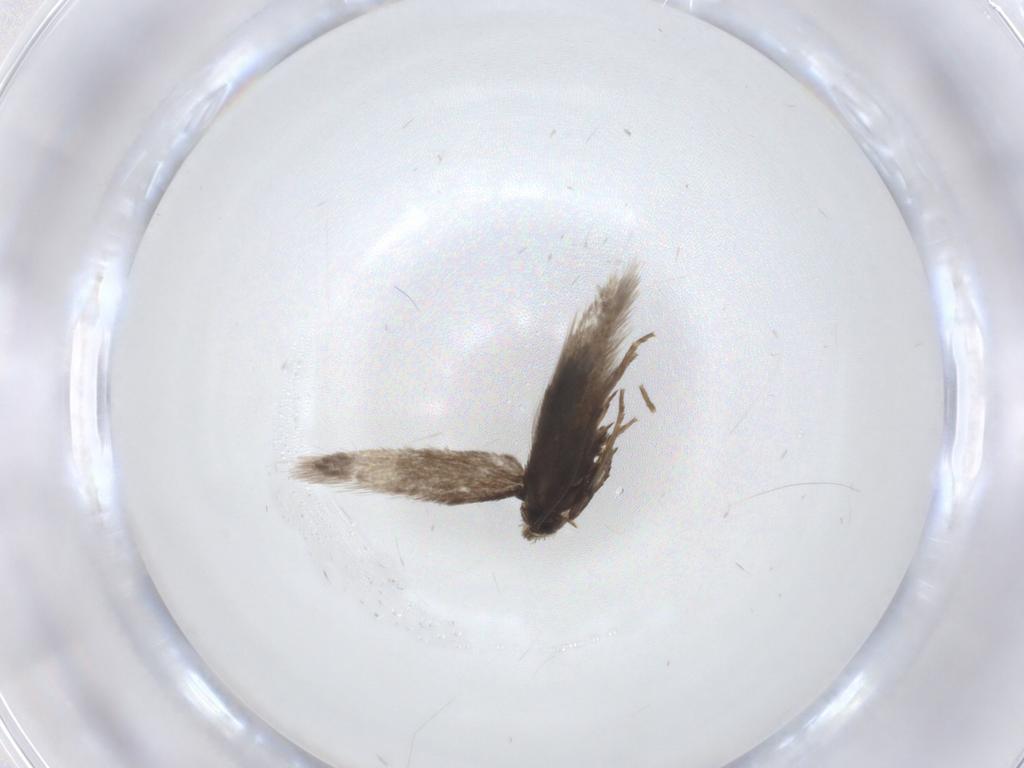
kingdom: Animalia
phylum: Arthropoda
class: Insecta
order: Lepidoptera
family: Nepticulidae
